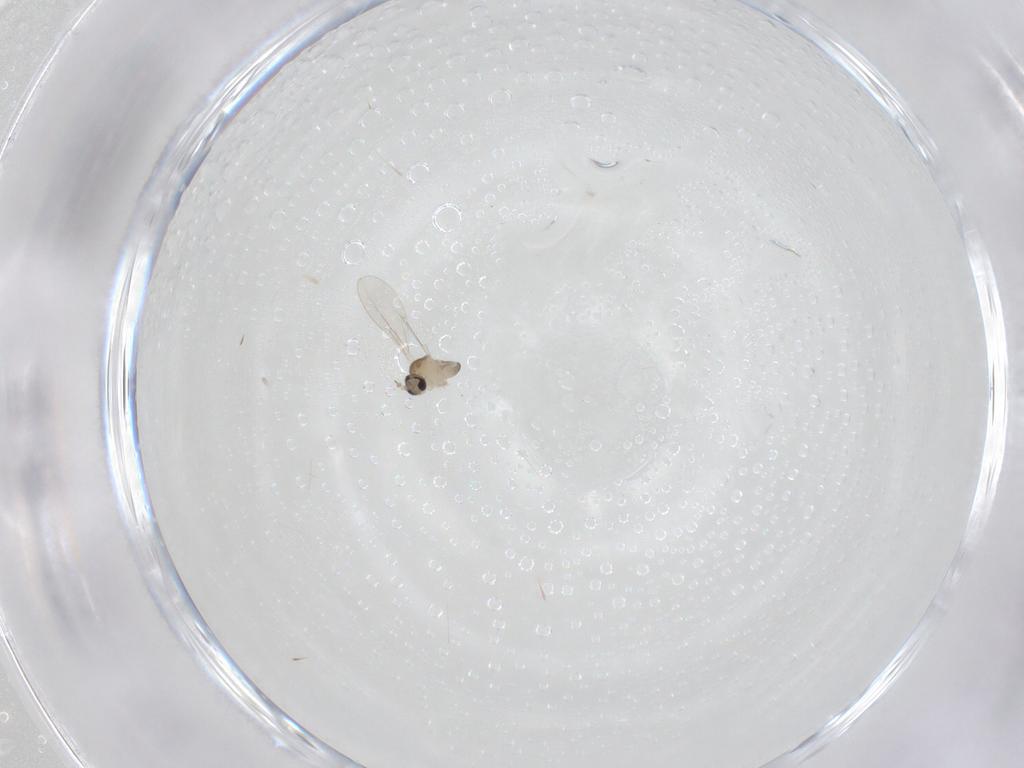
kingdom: Animalia
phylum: Arthropoda
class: Insecta
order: Diptera
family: Cecidomyiidae
